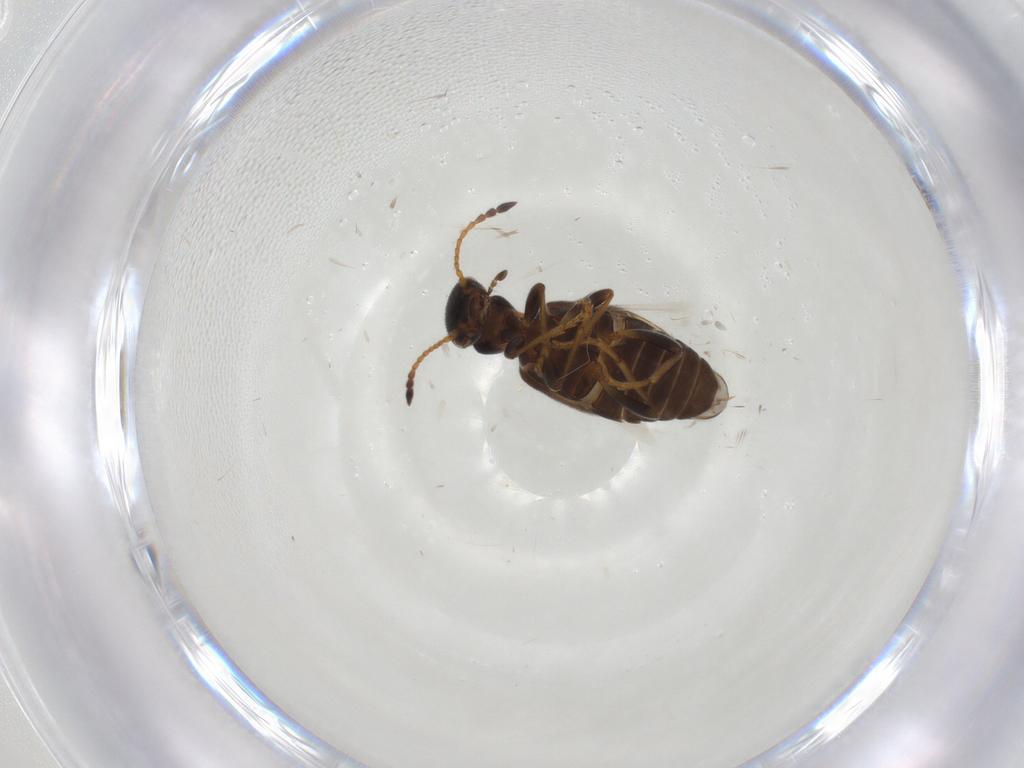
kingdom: Animalia
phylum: Arthropoda
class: Insecta
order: Coleoptera
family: Anthicidae
